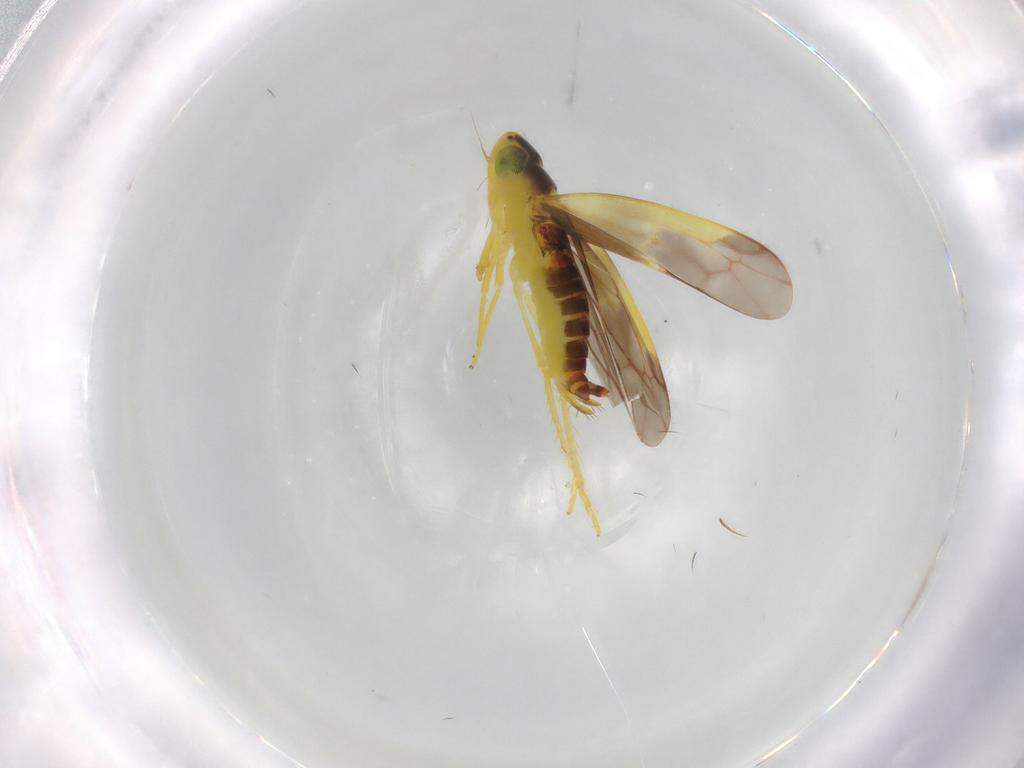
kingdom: Animalia
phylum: Arthropoda
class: Insecta
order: Hemiptera
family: Cicadellidae
